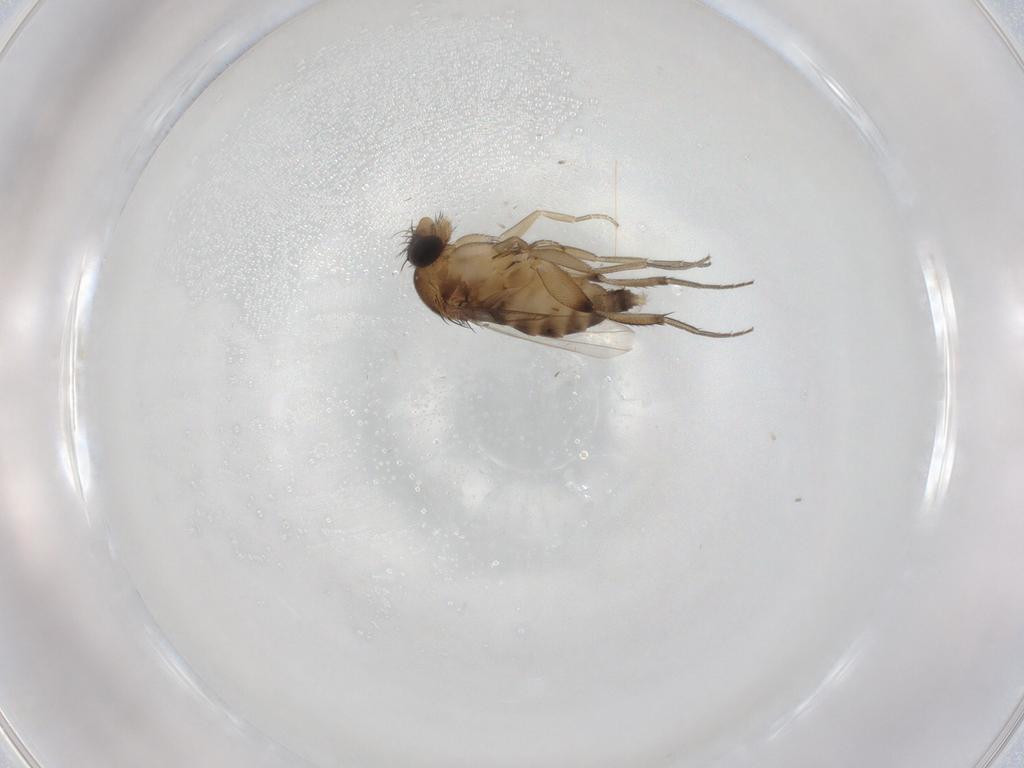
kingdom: Animalia
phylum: Arthropoda
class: Insecta
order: Diptera
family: Phoridae
